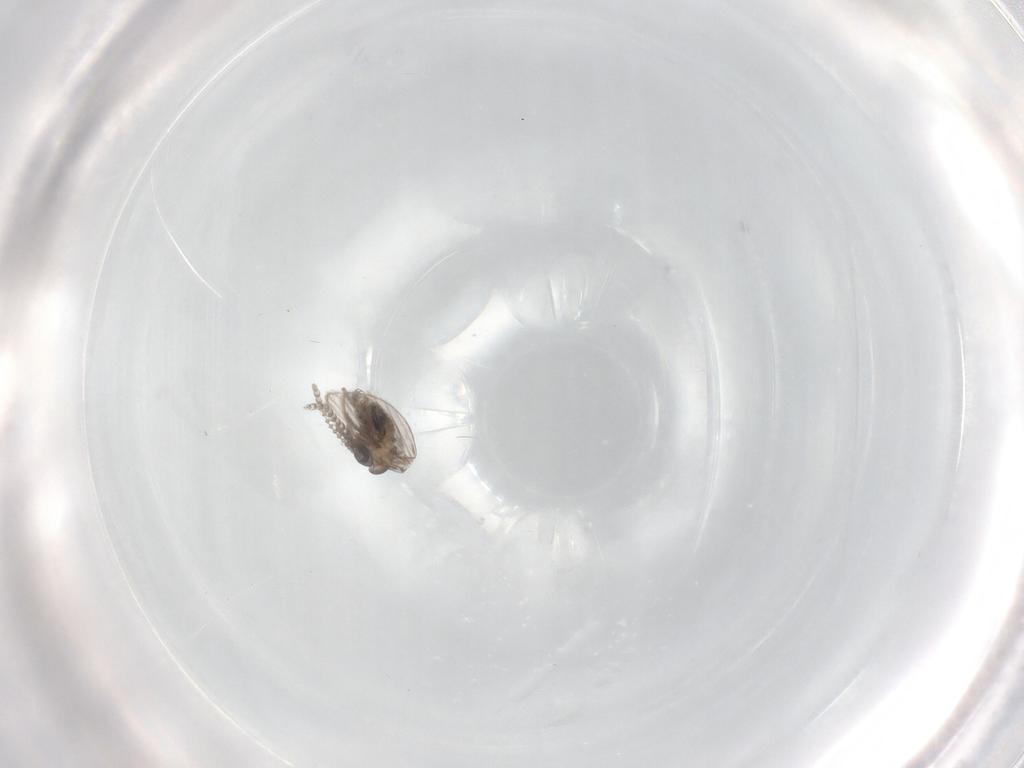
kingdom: Animalia
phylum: Arthropoda
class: Insecta
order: Diptera
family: Psychodidae
